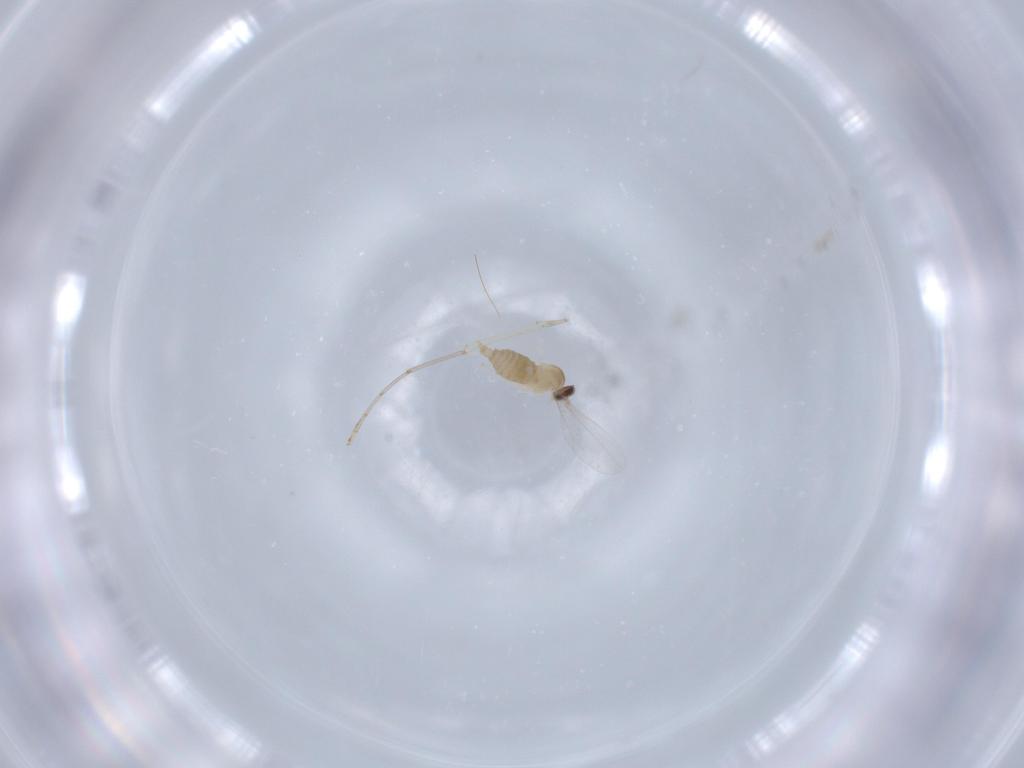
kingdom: Animalia
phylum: Arthropoda
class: Insecta
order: Diptera
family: Cecidomyiidae
